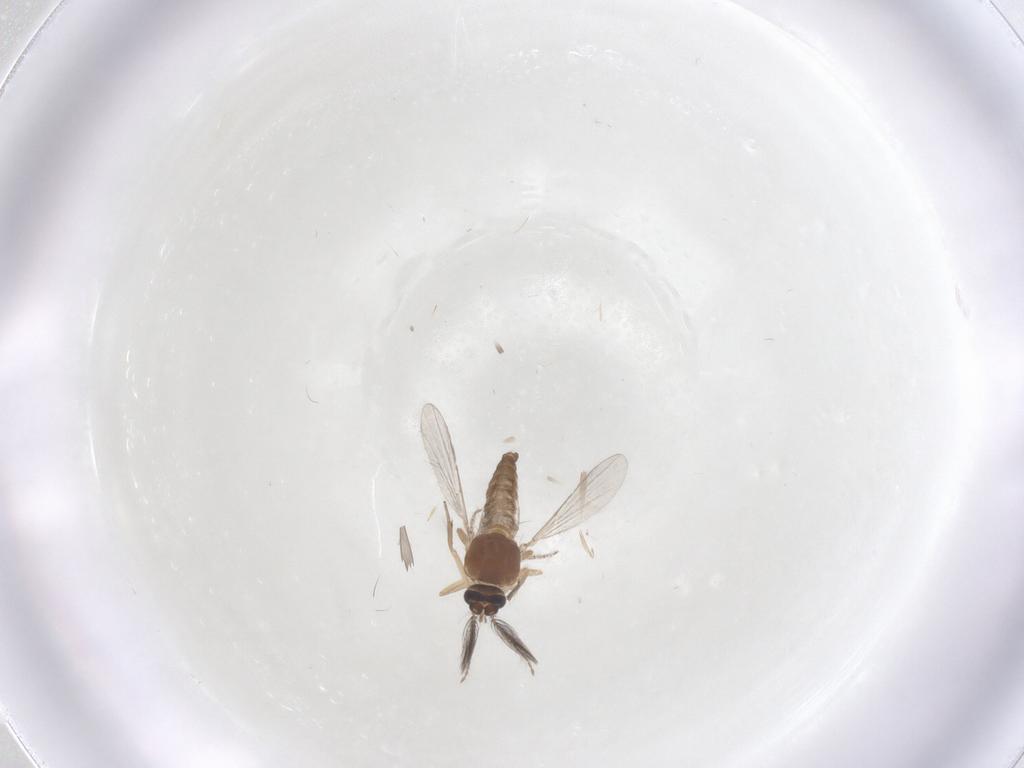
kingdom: Animalia
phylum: Arthropoda
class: Insecta
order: Diptera
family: Ceratopogonidae
